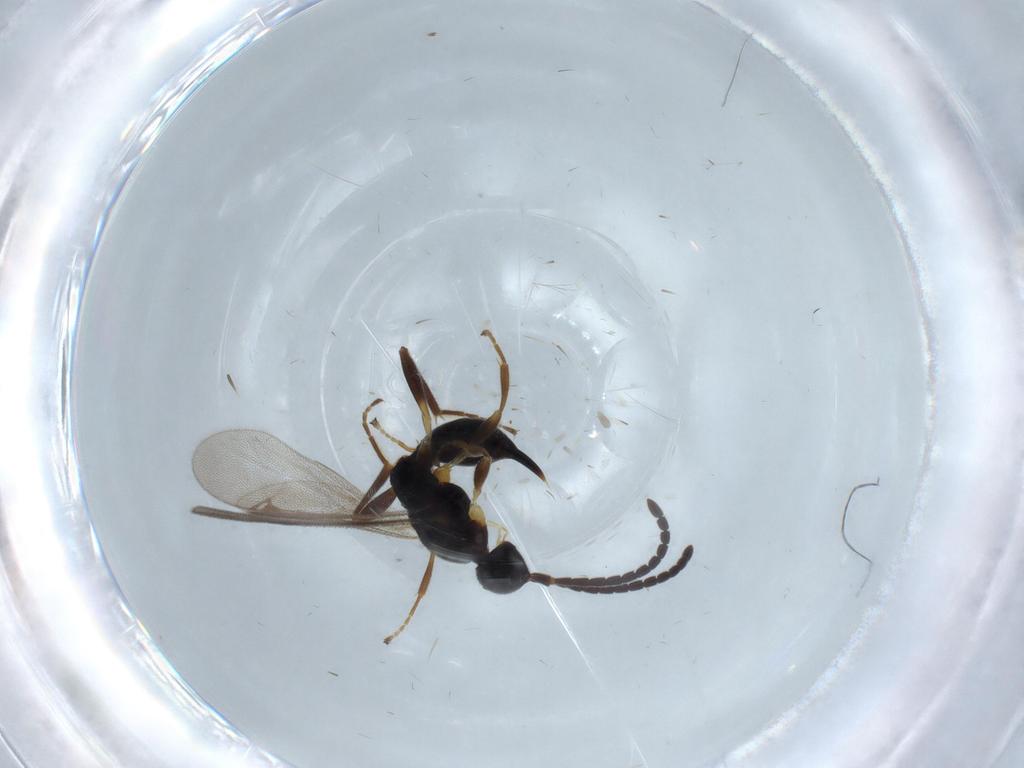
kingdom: Animalia
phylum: Arthropoda
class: Insecta
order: Hymenoptera
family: Proctotrupidae
